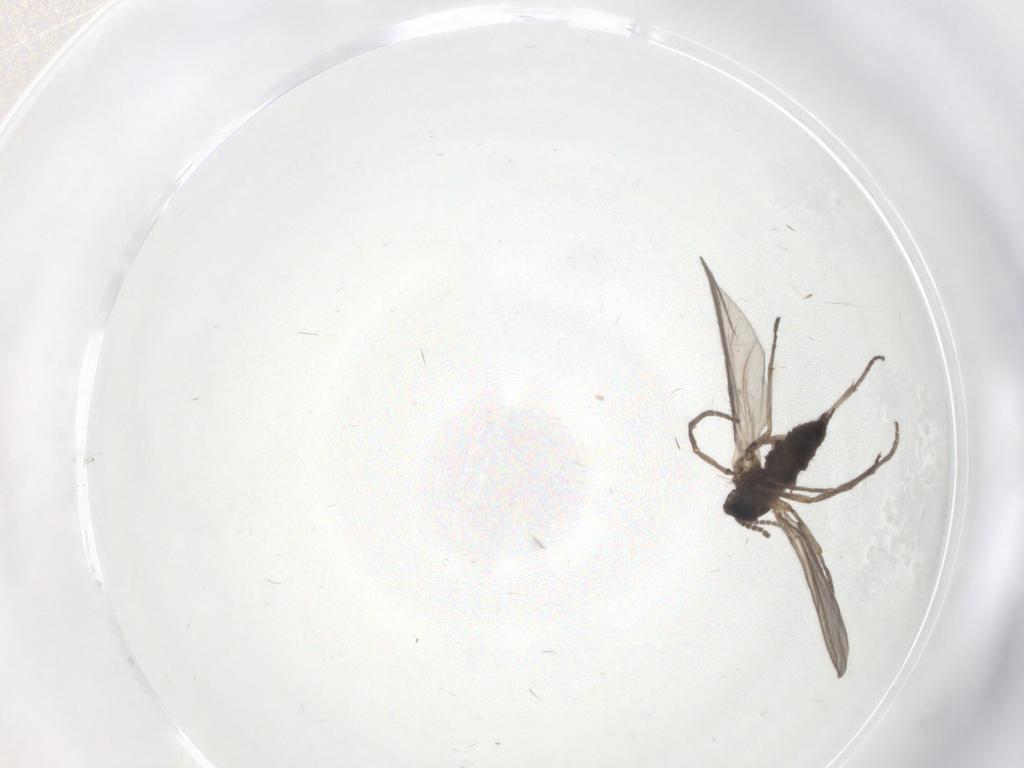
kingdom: Animalia
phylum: Arthropoda
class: Insecta
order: Diptera
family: Sciaridae
